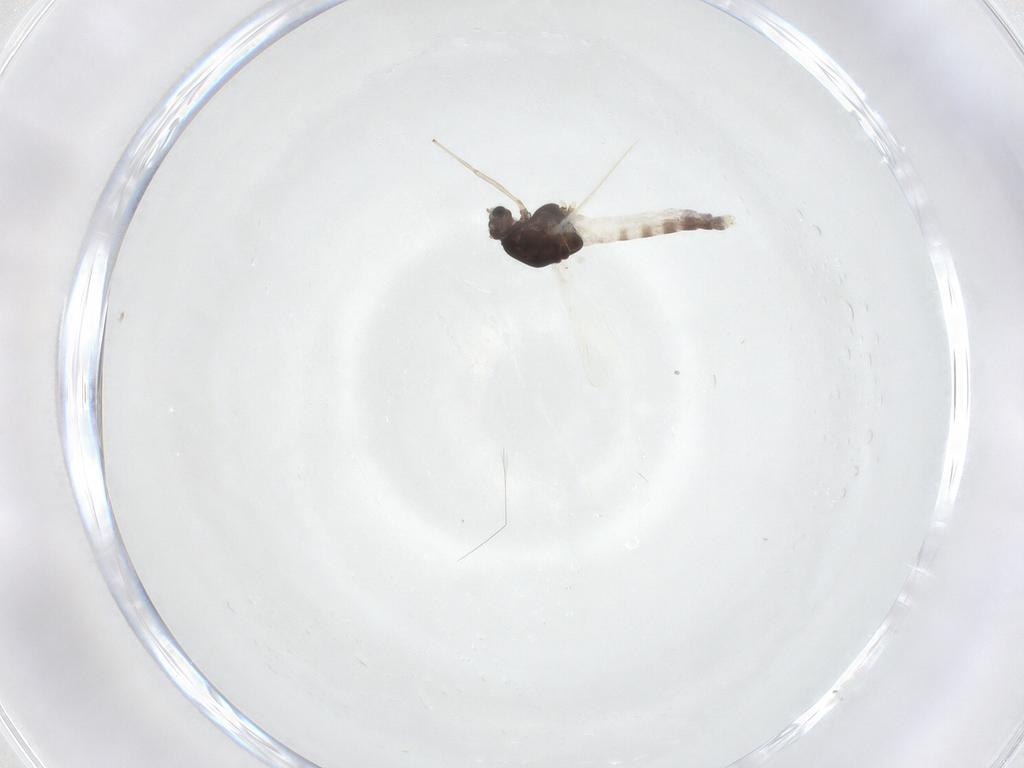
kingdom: Animalia
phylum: Arthropoda
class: Insecta
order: Diptera
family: Chironomidae
